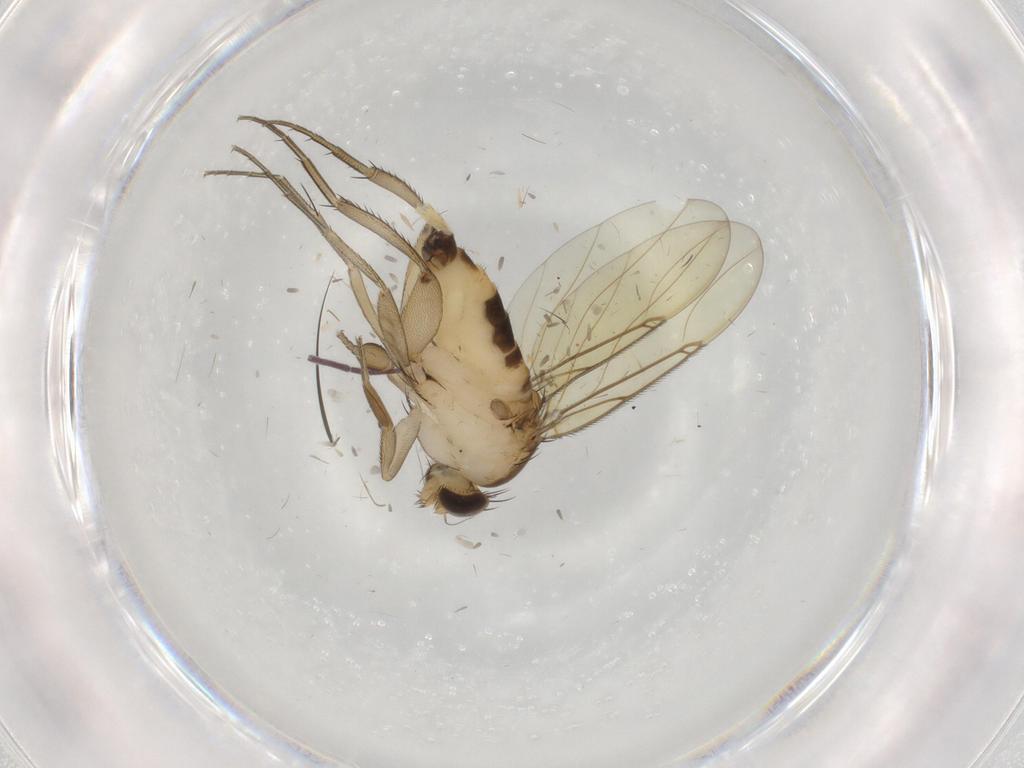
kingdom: Animalia
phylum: Arthropoda
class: Insecta
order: Diptera
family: Phoridae
